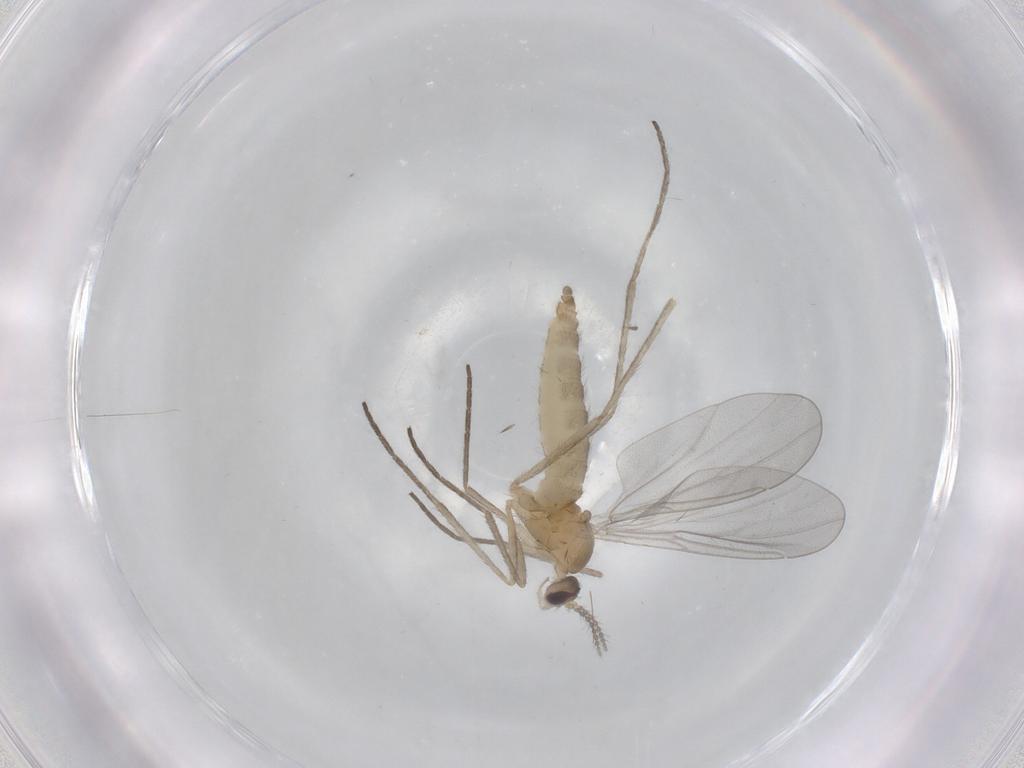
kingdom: Animalia
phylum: Arthropoda
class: Insecta
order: Diptera
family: Cecidomyiidae
